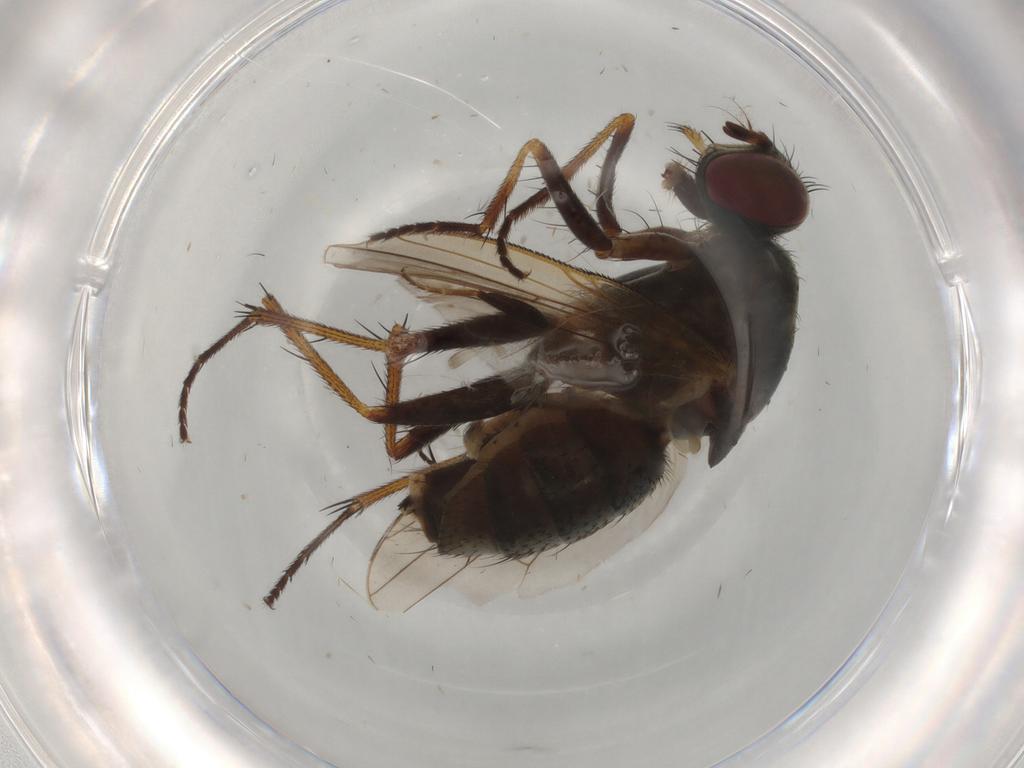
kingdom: Animalia
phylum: Arthropoda
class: Insecta
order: Diptera
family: Muscidae
